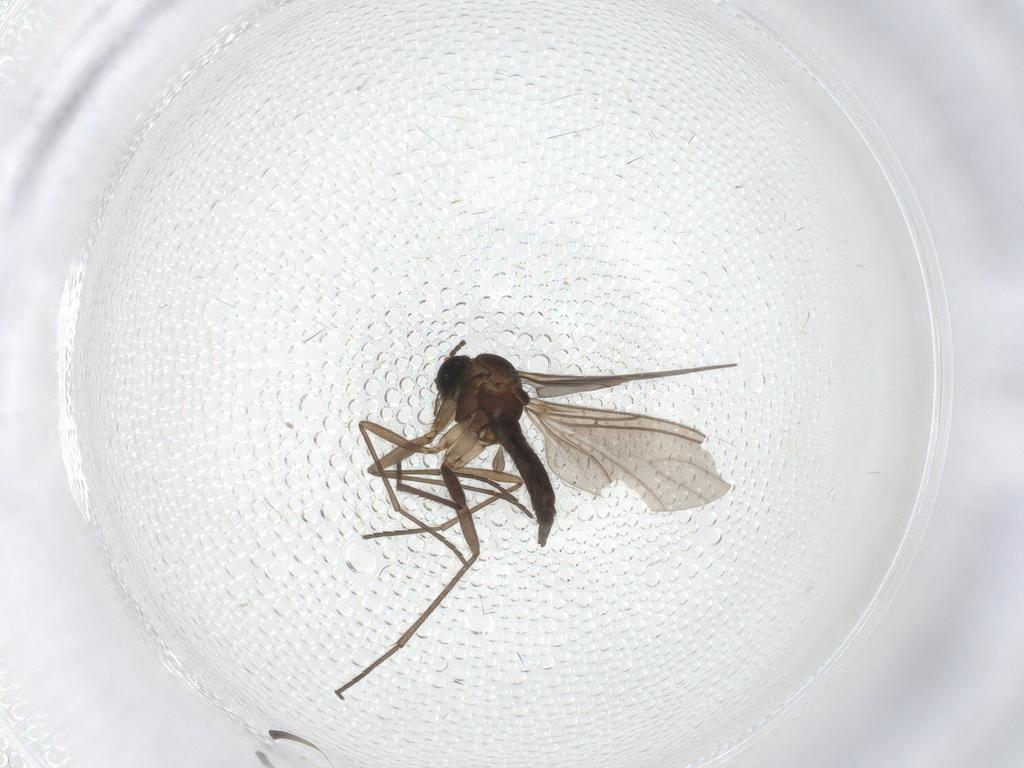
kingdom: Animalia
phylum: Arthropoda
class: Insecta
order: Diptera
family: Sciaridae
